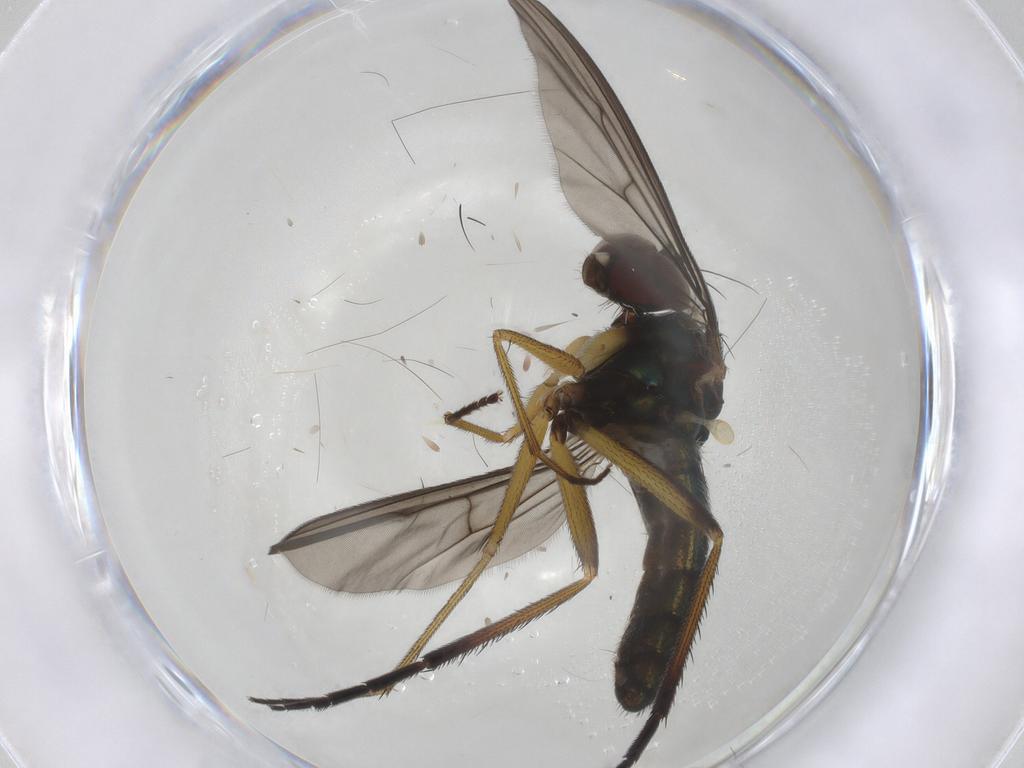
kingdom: Animalia
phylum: Arthropoda
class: Insecta
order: Diptera
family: Dolichopodidae
